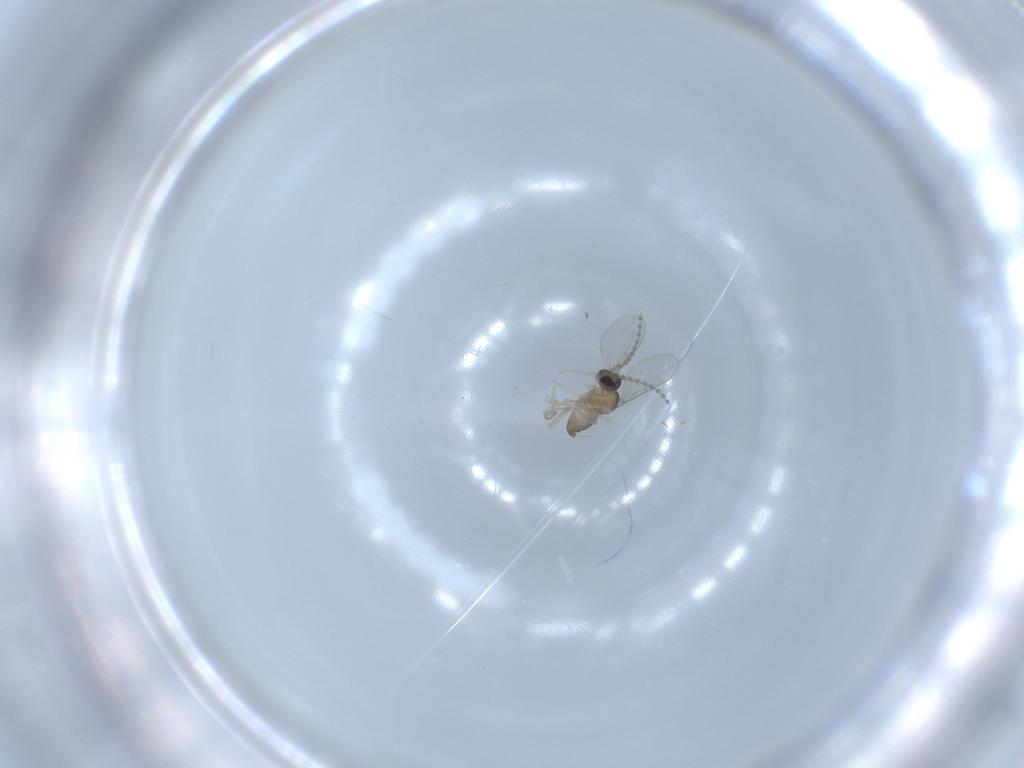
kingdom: Animalia
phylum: Arthropoda
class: Insecta
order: Diptera
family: Cecidomyiidae
